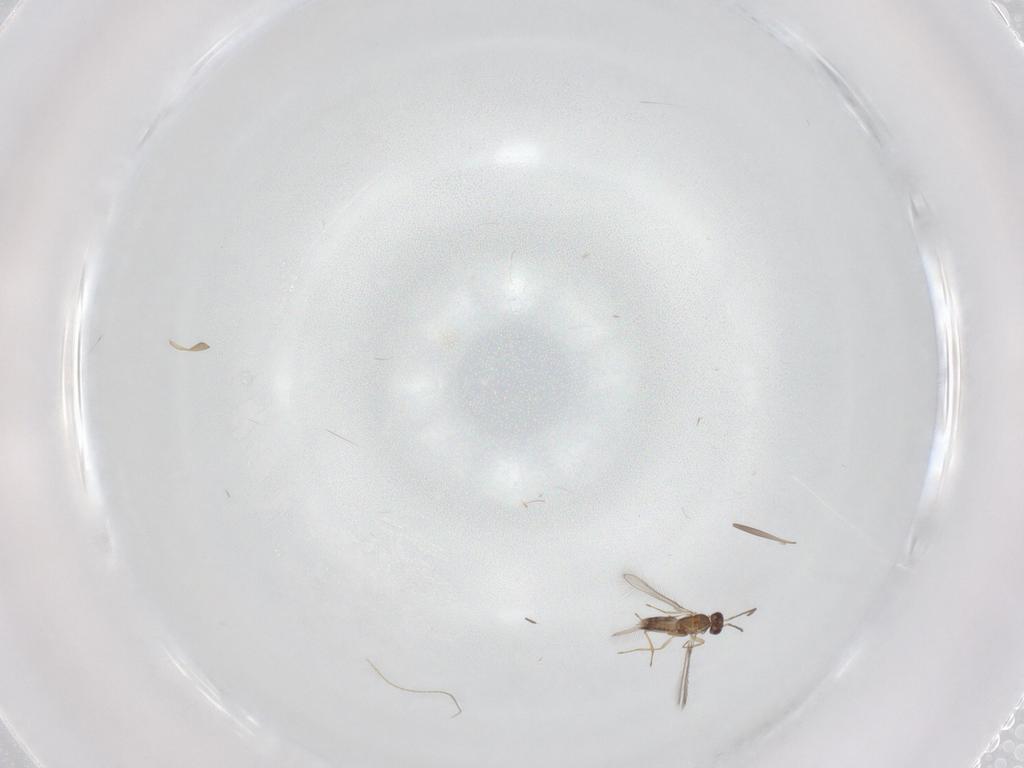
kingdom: Animalia
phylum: Arthropoda
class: Insecta
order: Hymenoptera
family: Mymaridae
